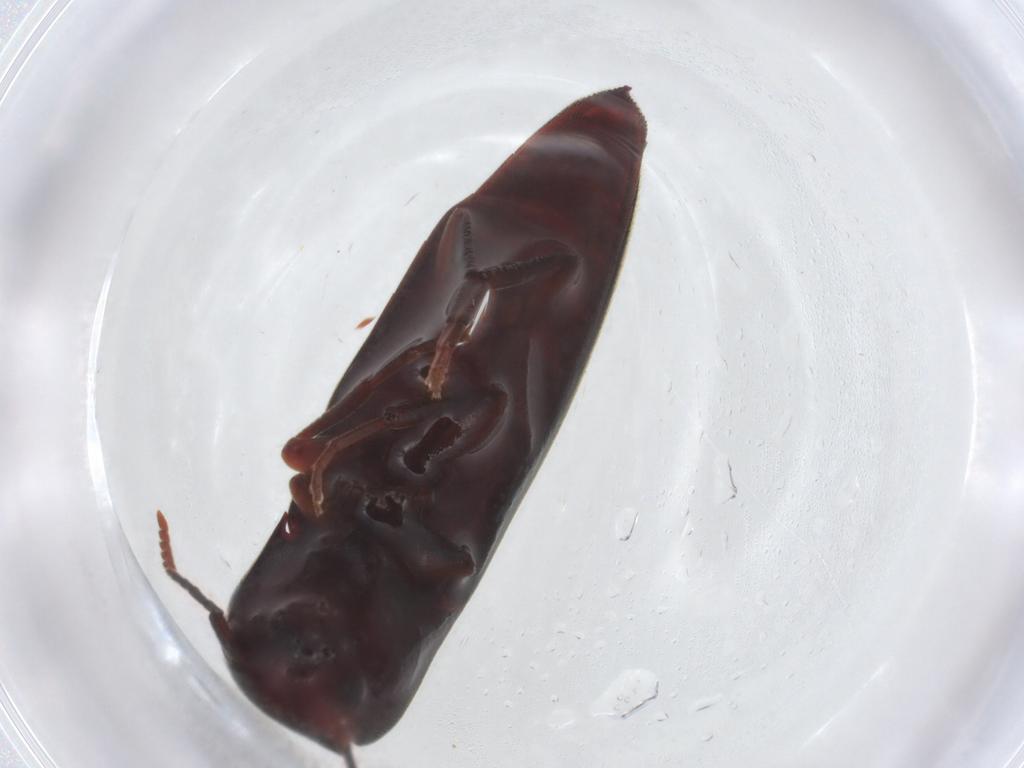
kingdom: Animalia
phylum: Arthropoda
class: Insecta
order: Coleoptera
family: Eucnemidae
